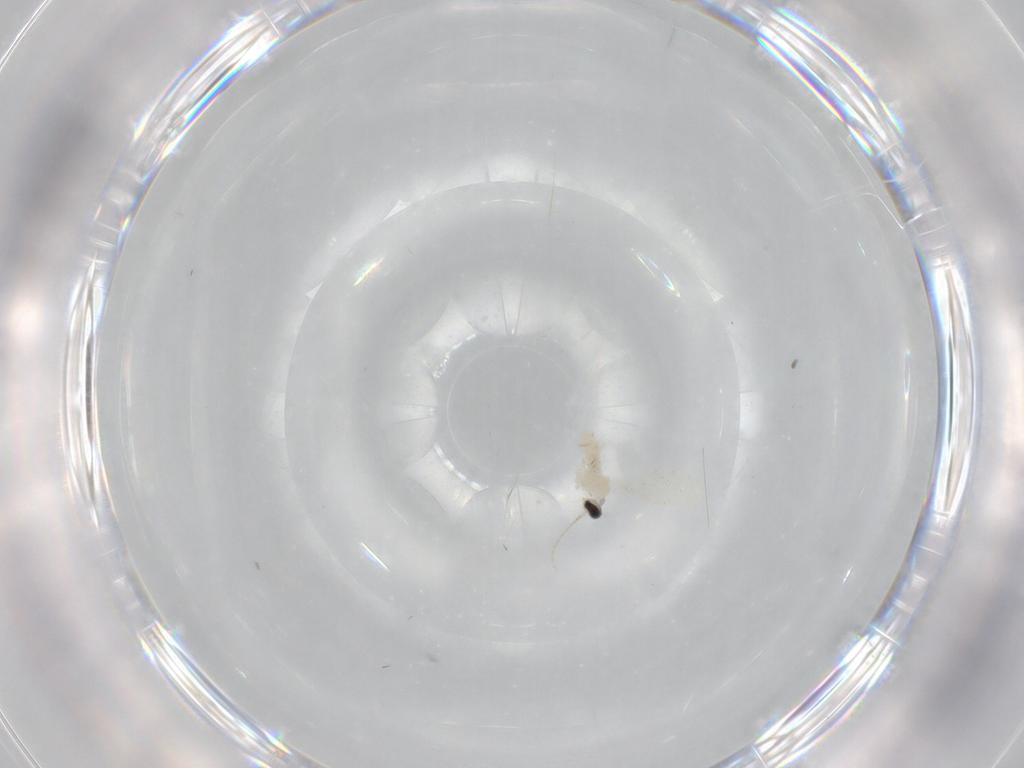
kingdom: Animalia
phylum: Arthropoda
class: Insecta
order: Diptera
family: Cecidomyiidae
